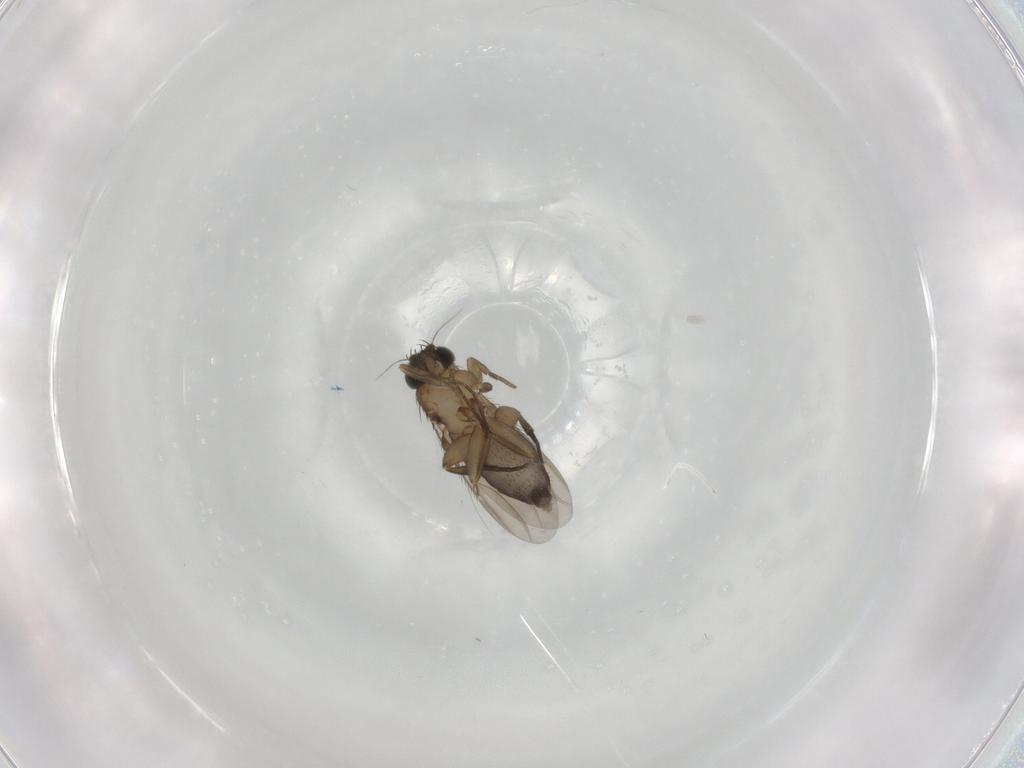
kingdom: Animalia
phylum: Arthropoda
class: Insecta
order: Diptera
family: Phoridae
